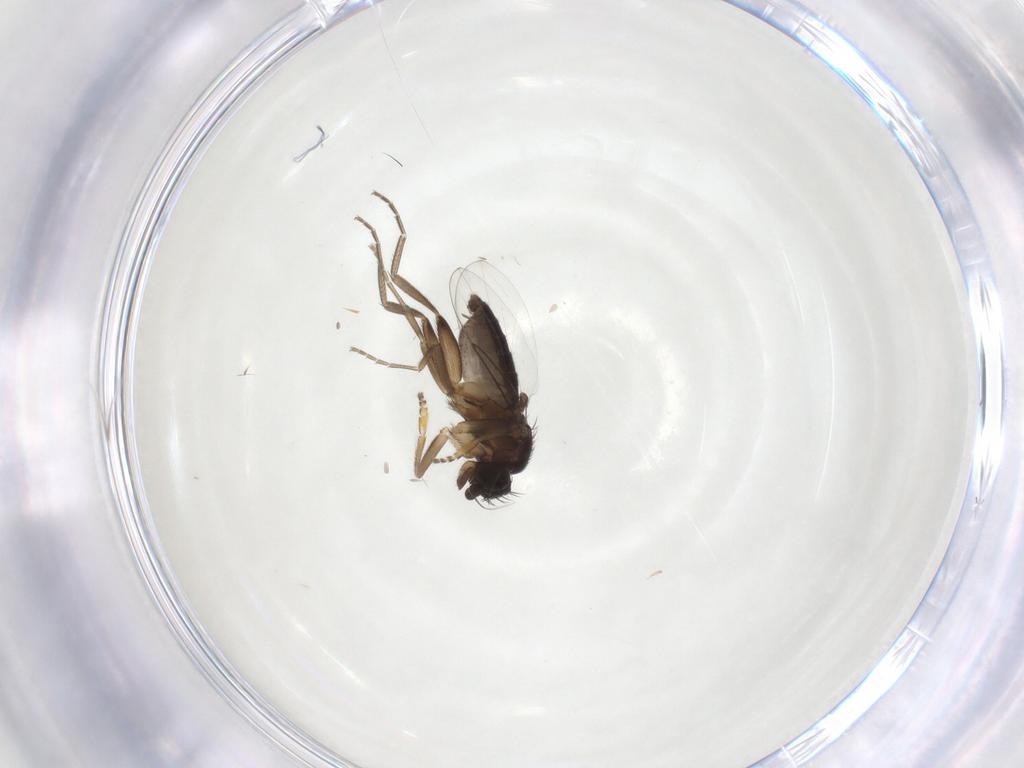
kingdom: Animalia
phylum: Arthropoda
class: Insecta
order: Diptera
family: Phoridae
